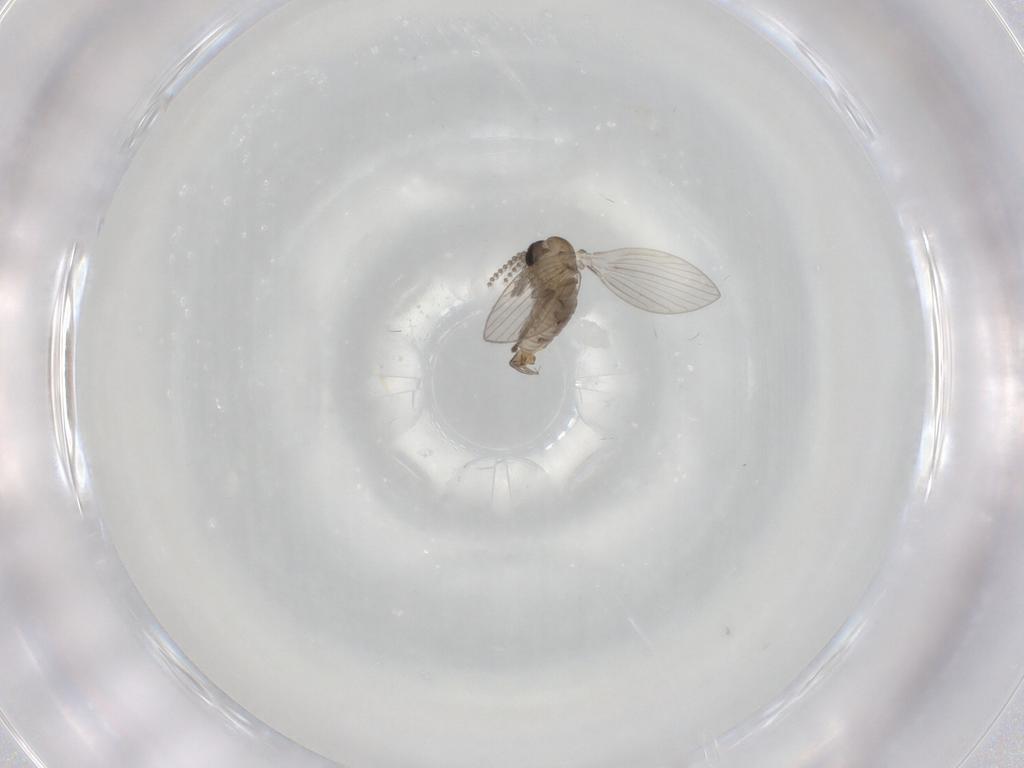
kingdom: Animalia
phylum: Arthropoda
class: Insecta
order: Diptera
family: Psychodidae
